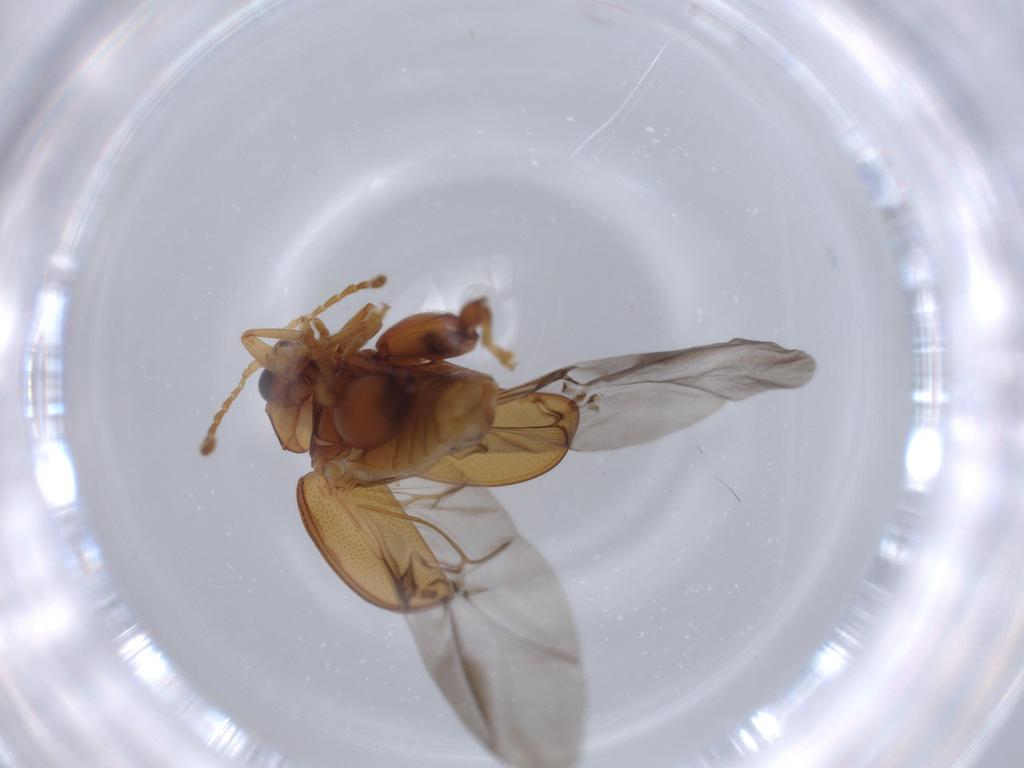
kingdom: Animalia
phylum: Arthropoda
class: Insecta
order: Coleoptera
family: Chrysomelidae
